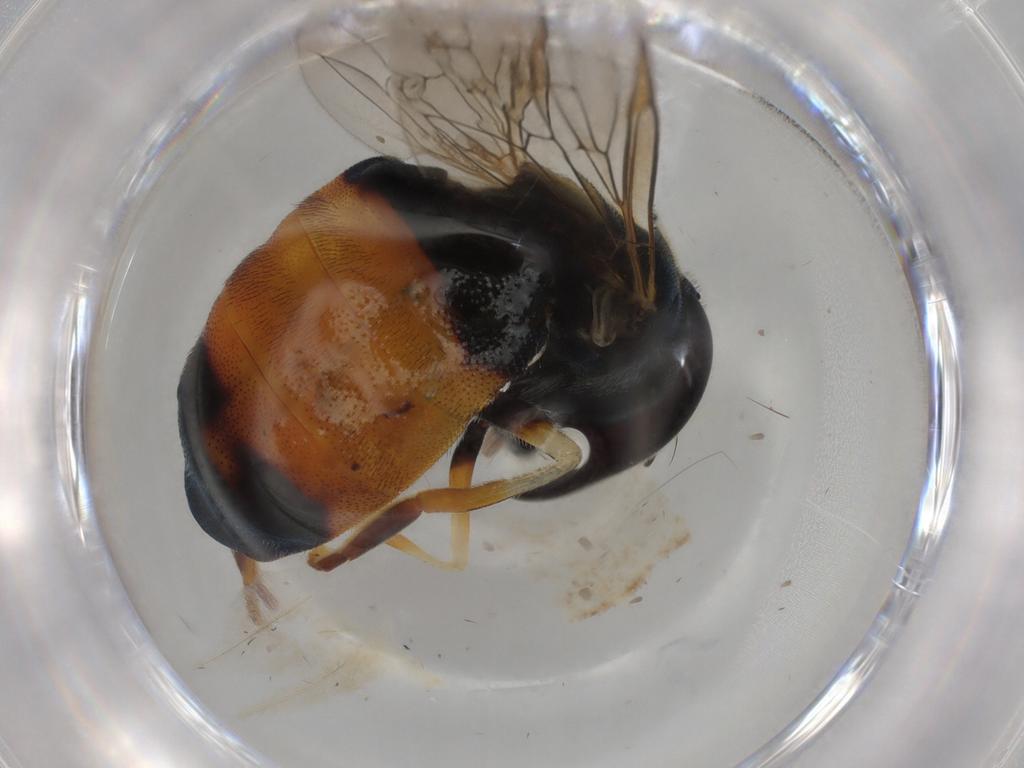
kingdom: Animalia
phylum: Arthropoda
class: Insecta
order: Diptera
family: Syrphidae
